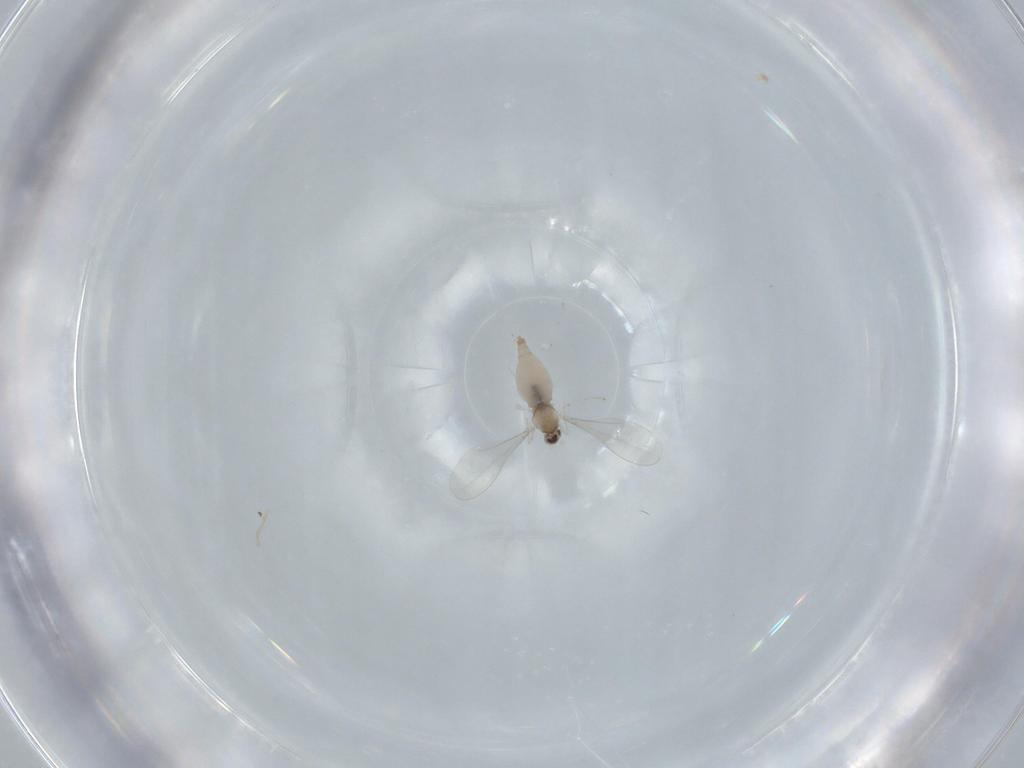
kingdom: Animalia
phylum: Arthropoda
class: Insecta
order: Diptera
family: Cecidomyiidae
